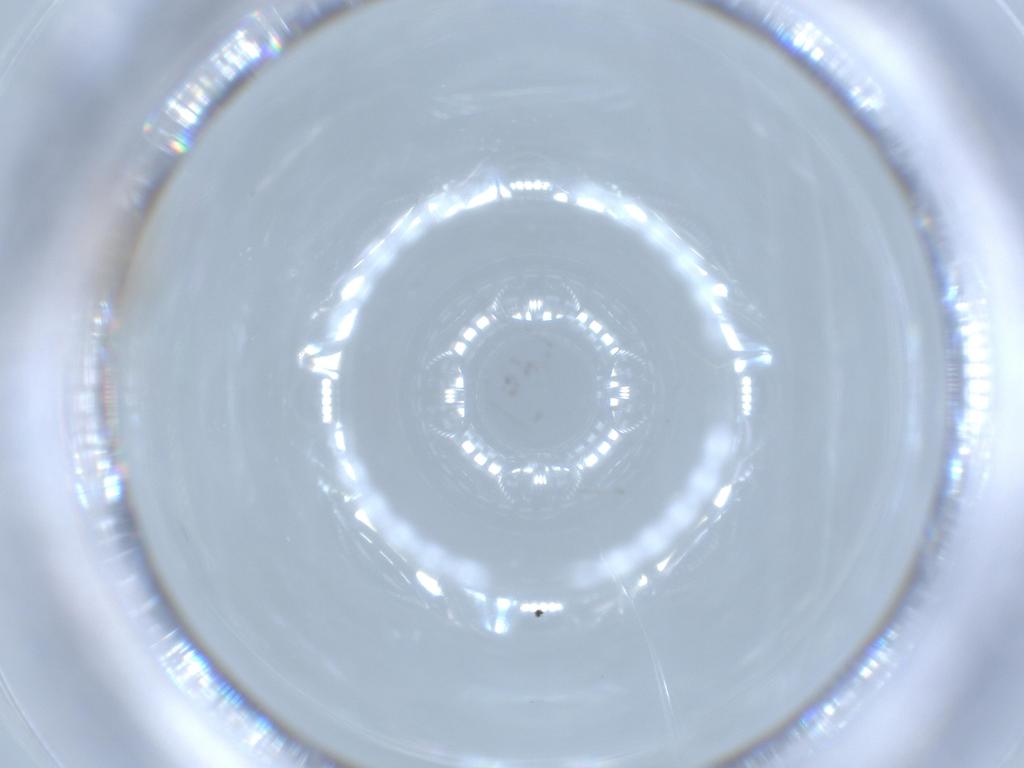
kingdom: Animalia
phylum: Arthropoda
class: Insecta
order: Diptera
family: Cecidomyiidae
